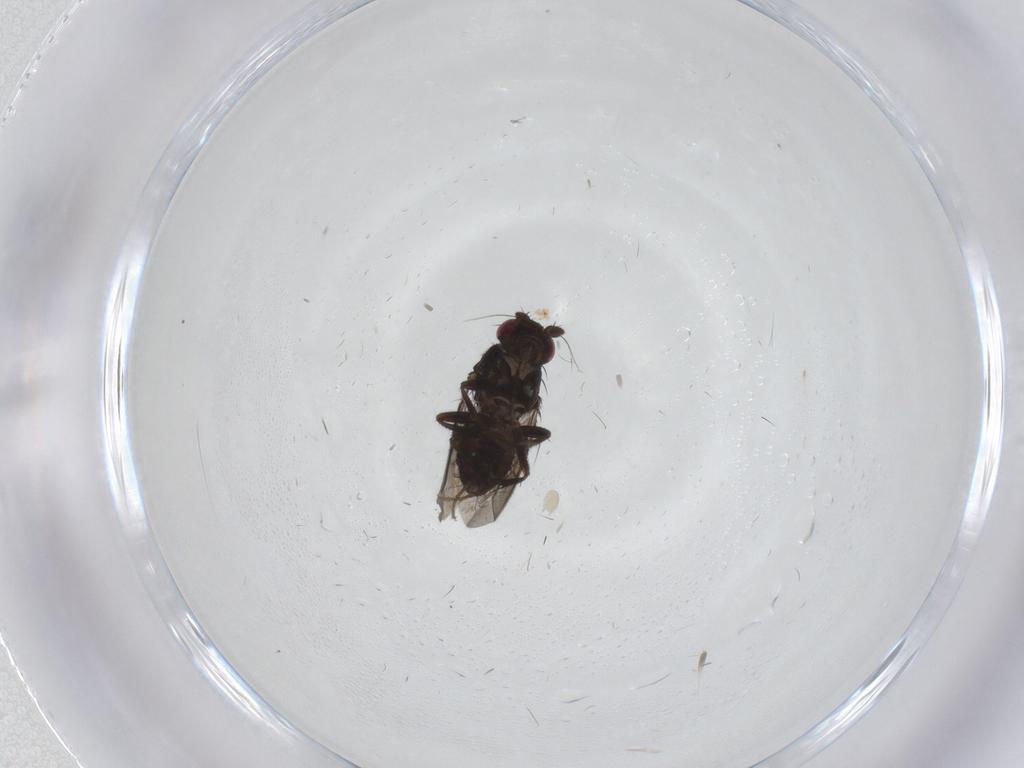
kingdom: Animalia
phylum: Arthropoda
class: Insecta
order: Diptera
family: Sphaeroceridae
